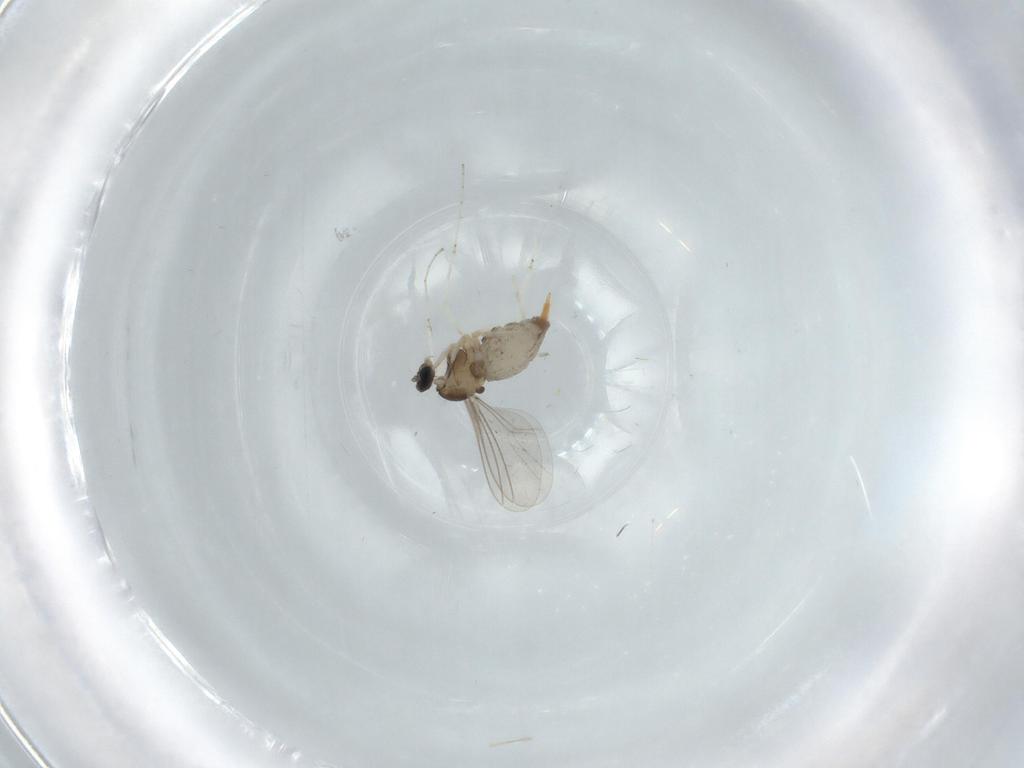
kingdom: Animalia
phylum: Arthropoda
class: Insecta
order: Diptera
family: Cecidomyiidae
